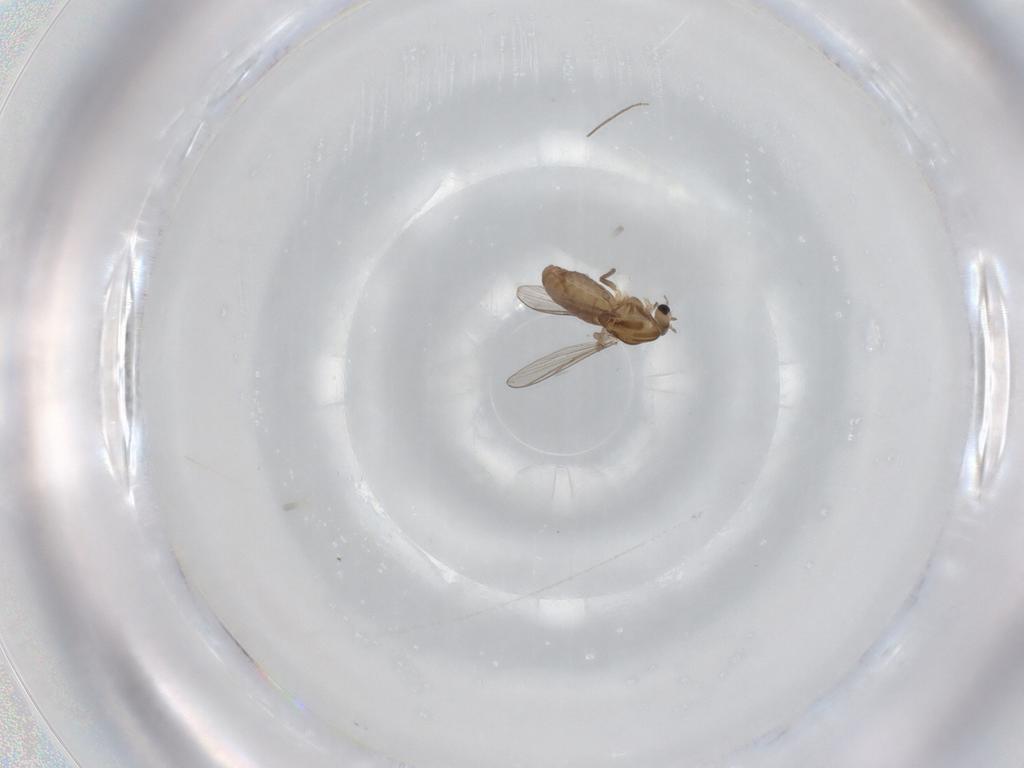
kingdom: Animalia
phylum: Arthropoda
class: Insecta
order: Diptera
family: Chironomidae
